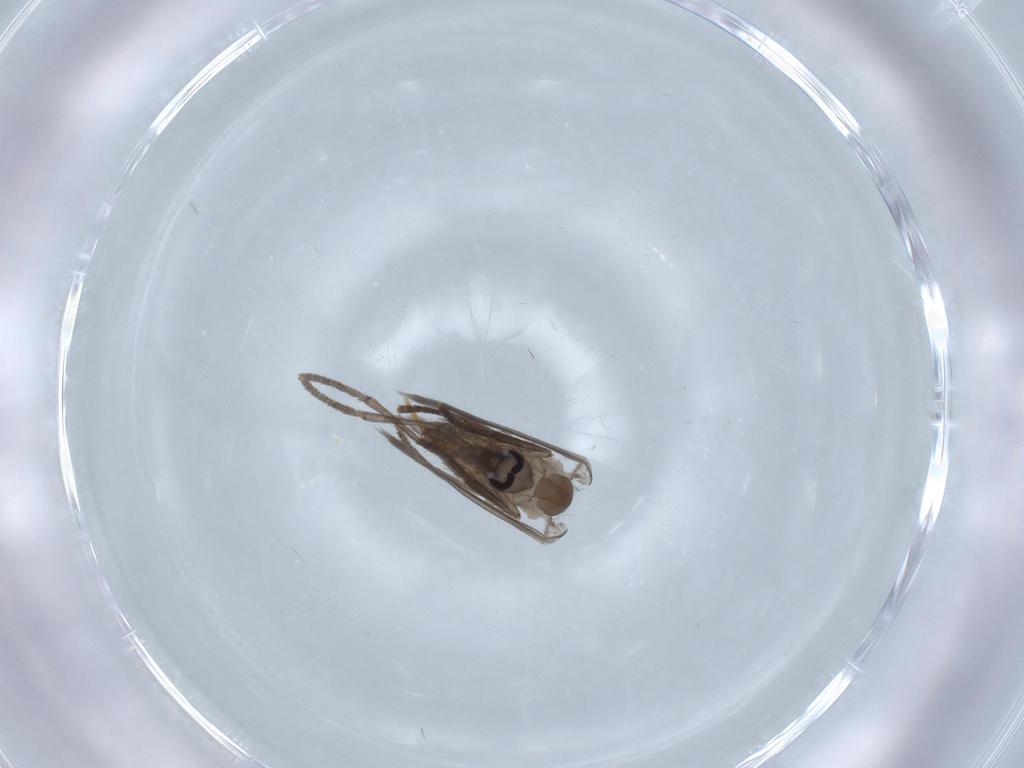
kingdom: Animalia
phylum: Arthropoda
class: Insecta
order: Diptera
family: Psychodidae
